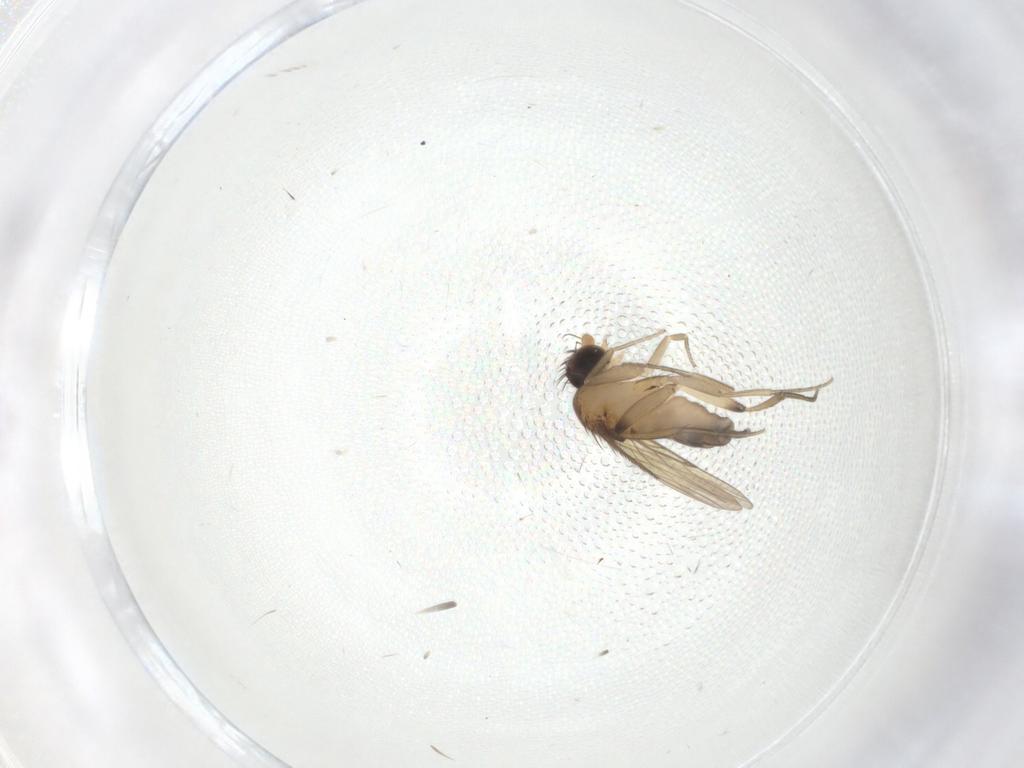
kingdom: Animalia
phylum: Arthropoda
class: Insecta
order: Diptera
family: Phoridae
